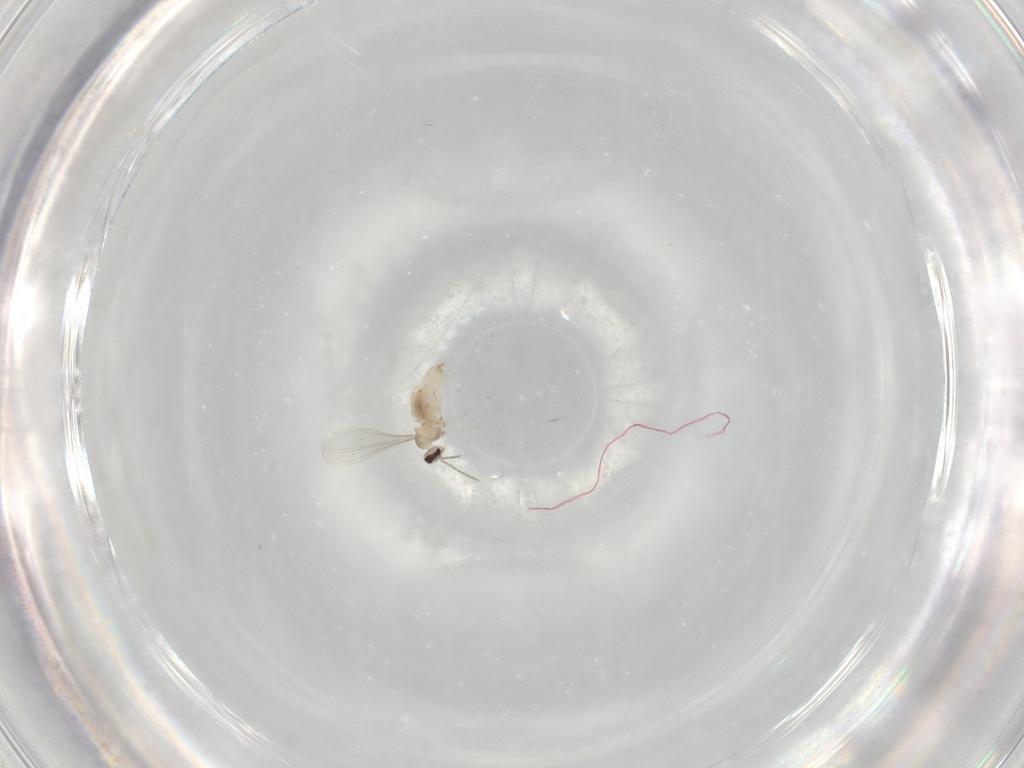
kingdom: Animalia
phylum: Arthropoda
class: Insecta
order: Diptera
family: Cecidomyiidae
